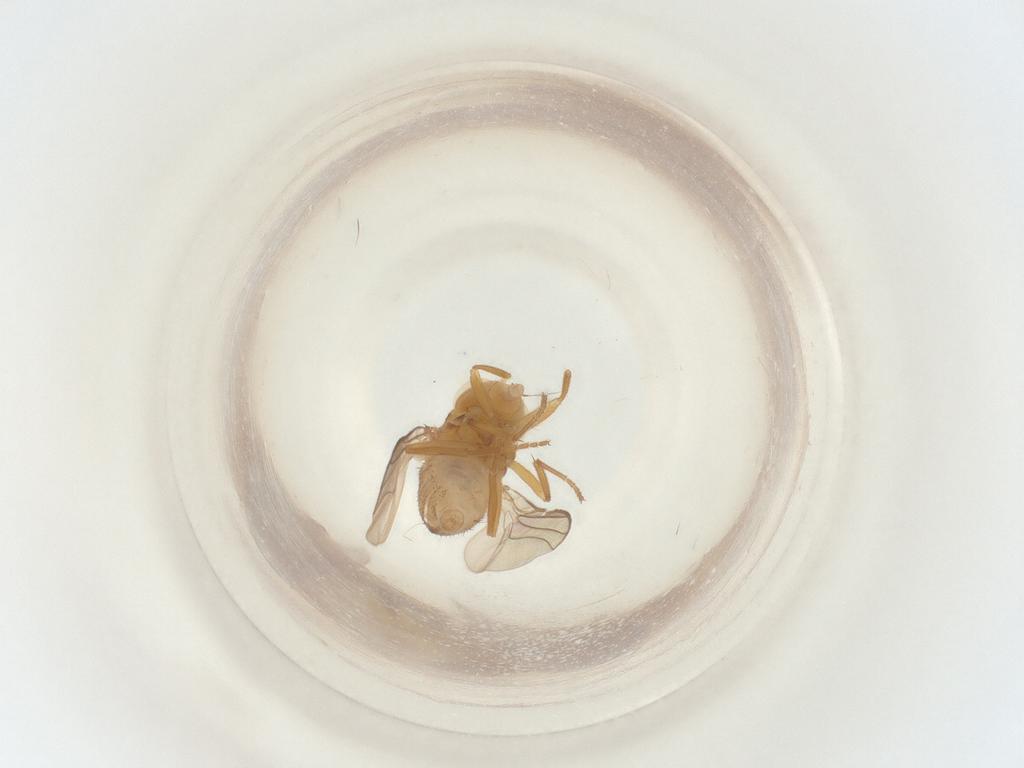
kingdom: Animalia
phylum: Arthropoda
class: Insecta
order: Diptera
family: Chloropidae
